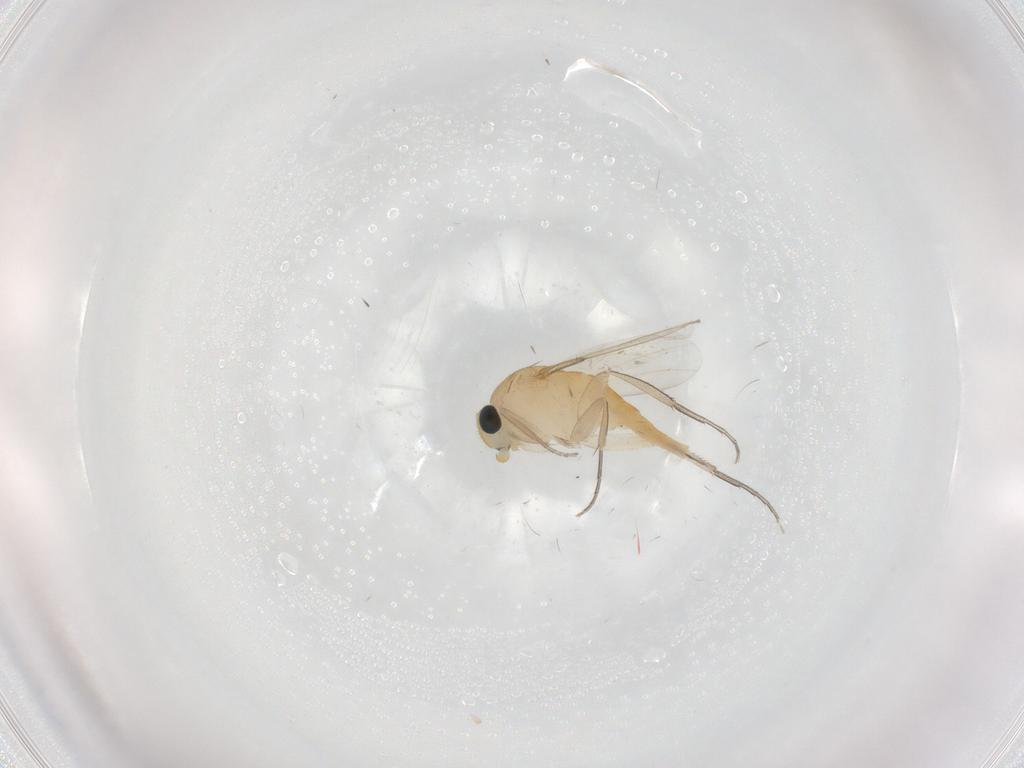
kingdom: Animalia
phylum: Arthropoda
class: Insecta
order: Diptera
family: Phoridae
